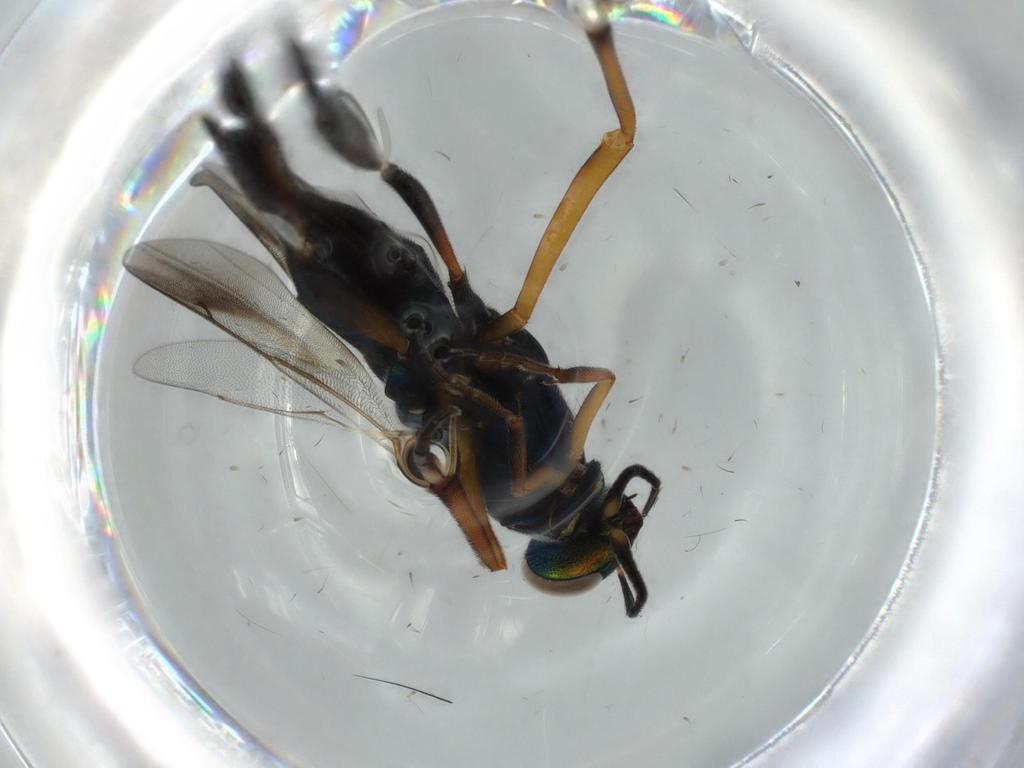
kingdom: Animalia
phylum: Arthropoda
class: Insecta
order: Hymenoptera
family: Eupelmidae
